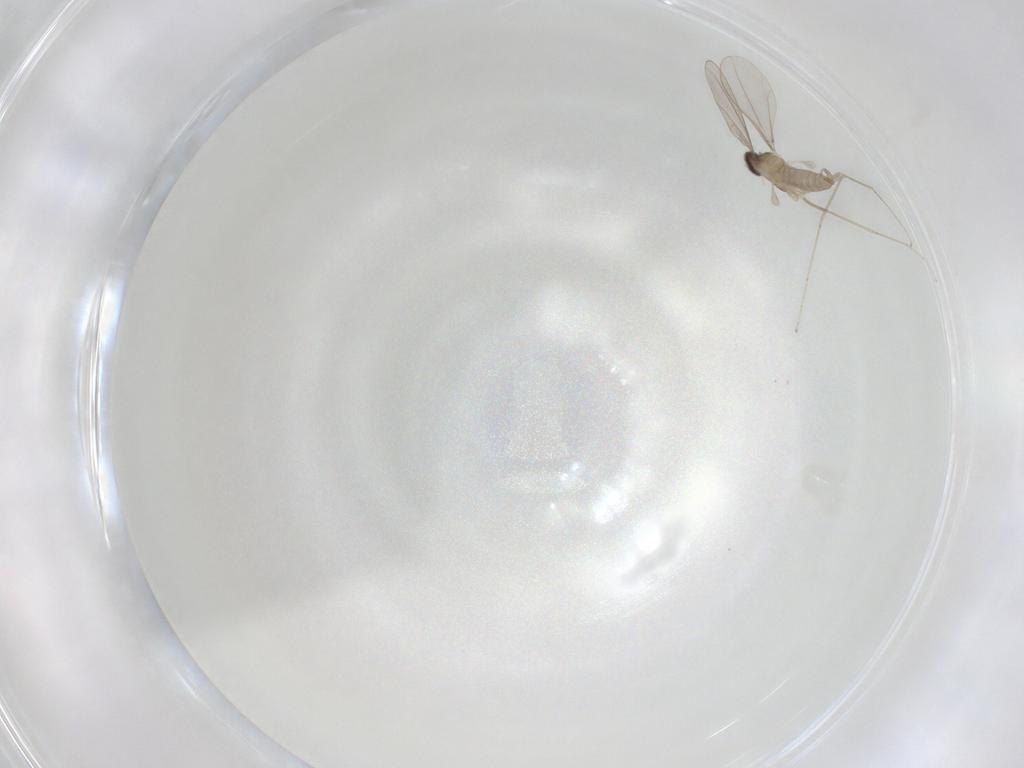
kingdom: Animalia
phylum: Arthropoda
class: Insecta
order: Diptera
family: Cecidomyiidae
